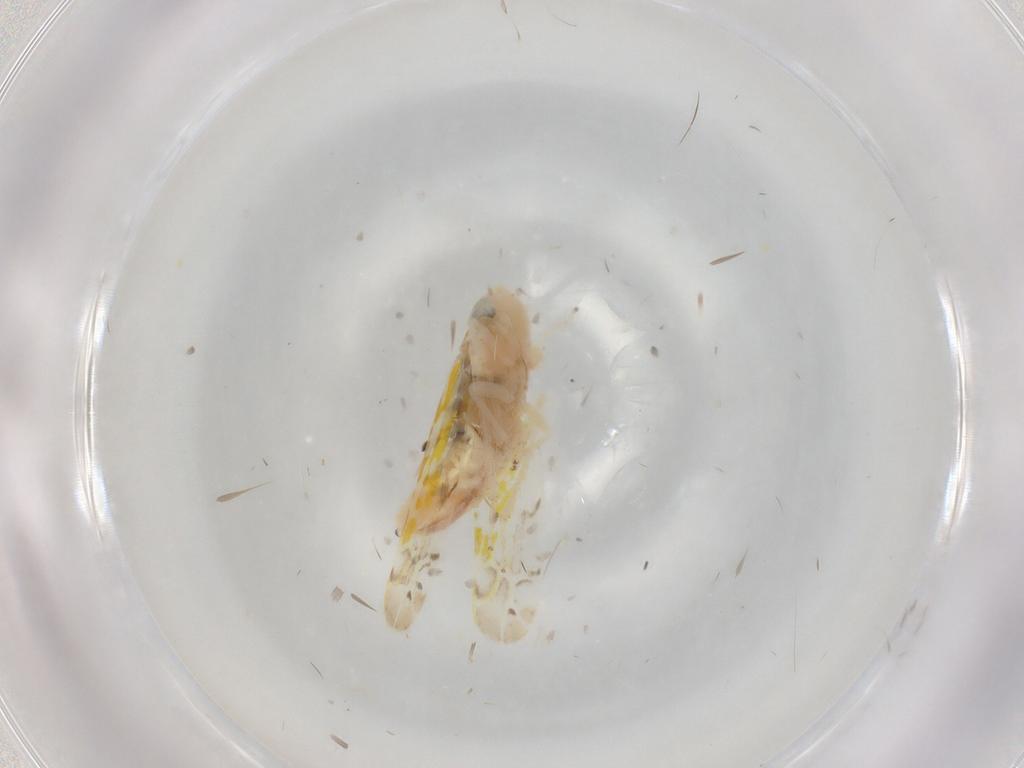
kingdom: Animalia
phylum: Arthropoda
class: Insecta
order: Hemiptera
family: Cicadellidae
